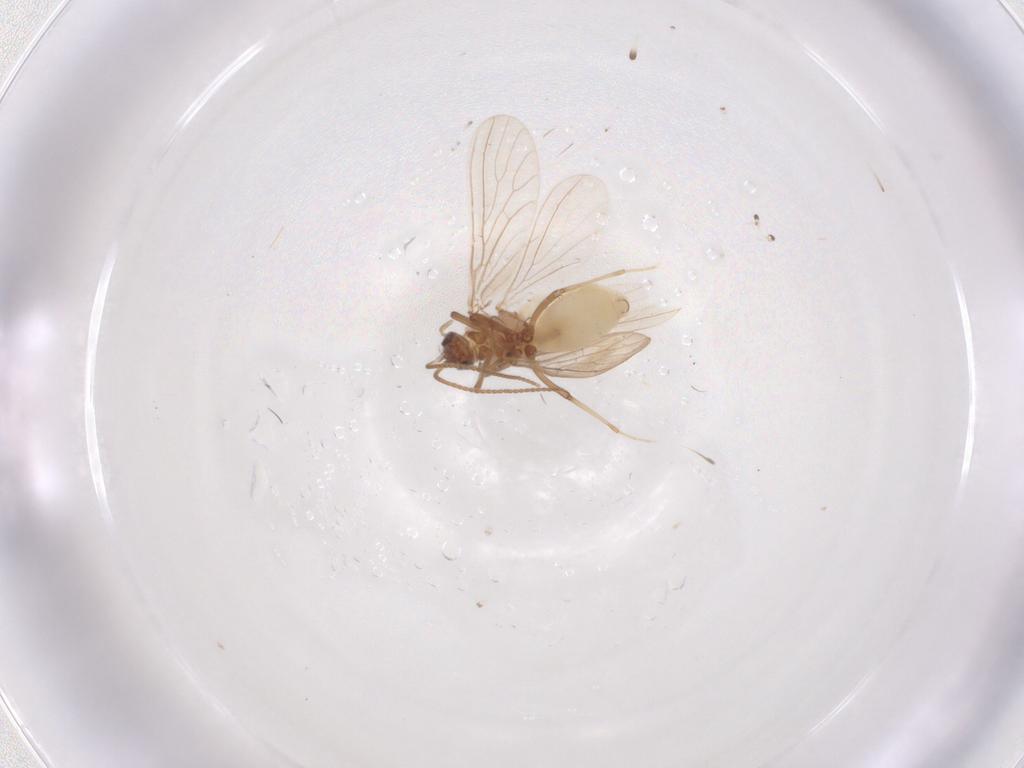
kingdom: Animalia
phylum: Arthropoda
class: Insecta
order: Neuroptera
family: Coniopterygidae
